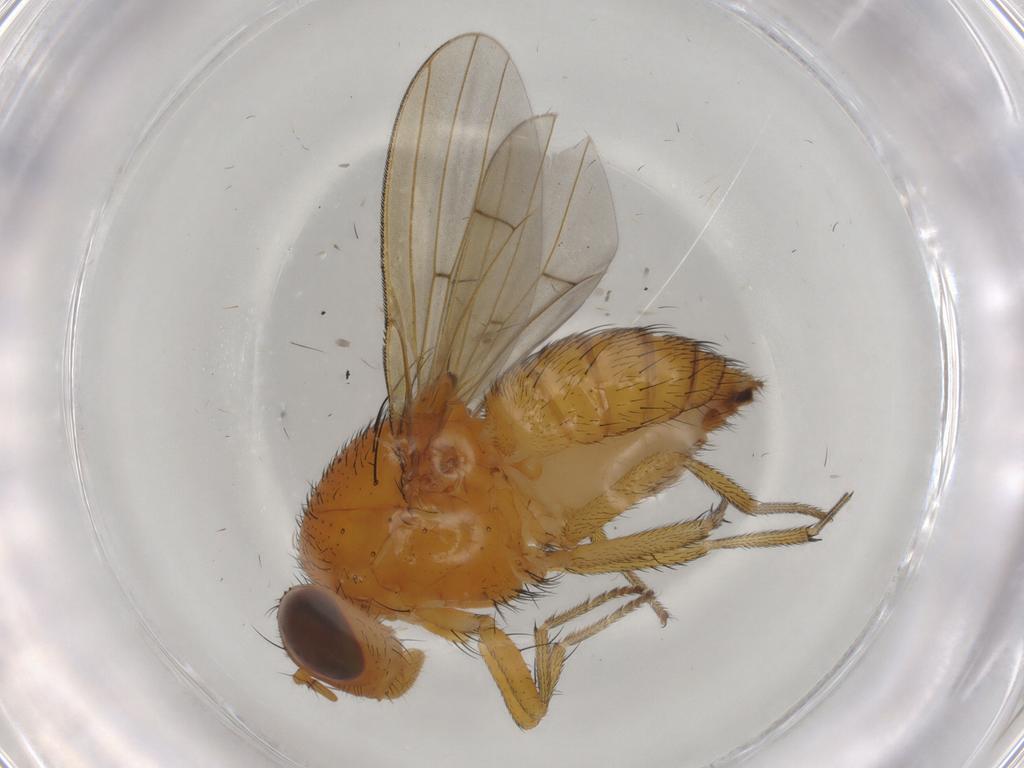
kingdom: Animalia
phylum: Arthropoda
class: Insecta
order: Diptera
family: Lauxaniidae
